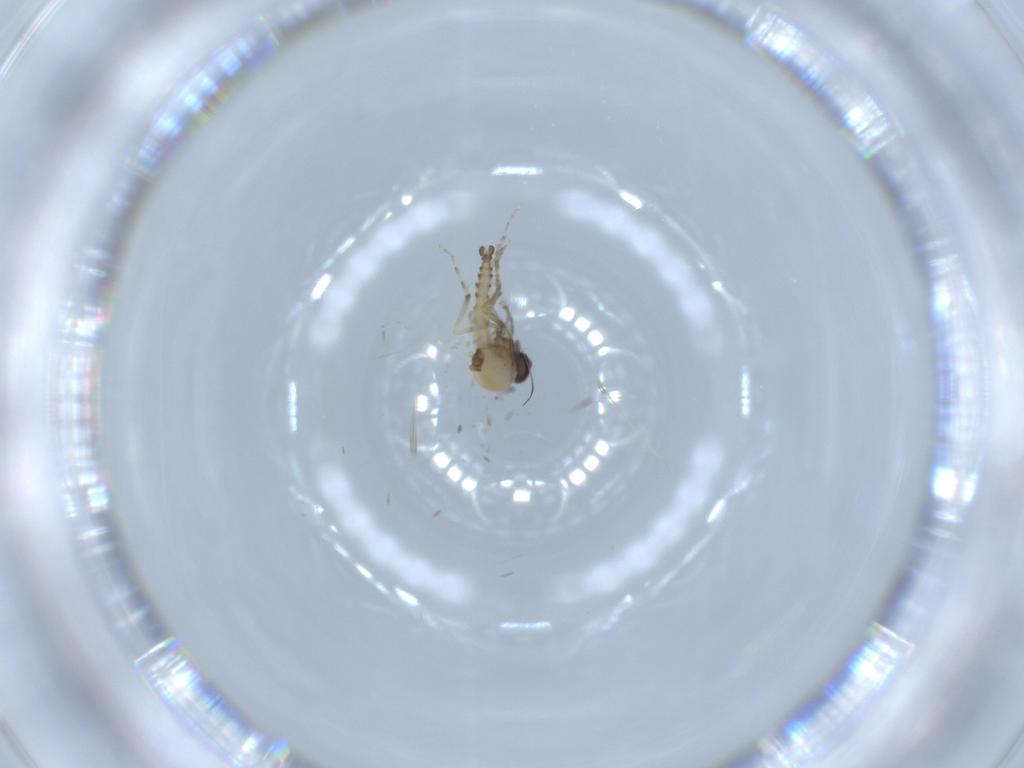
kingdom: Animalia
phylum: Arthropoda
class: Insecta
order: Diptera
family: Ceratopogonidae
